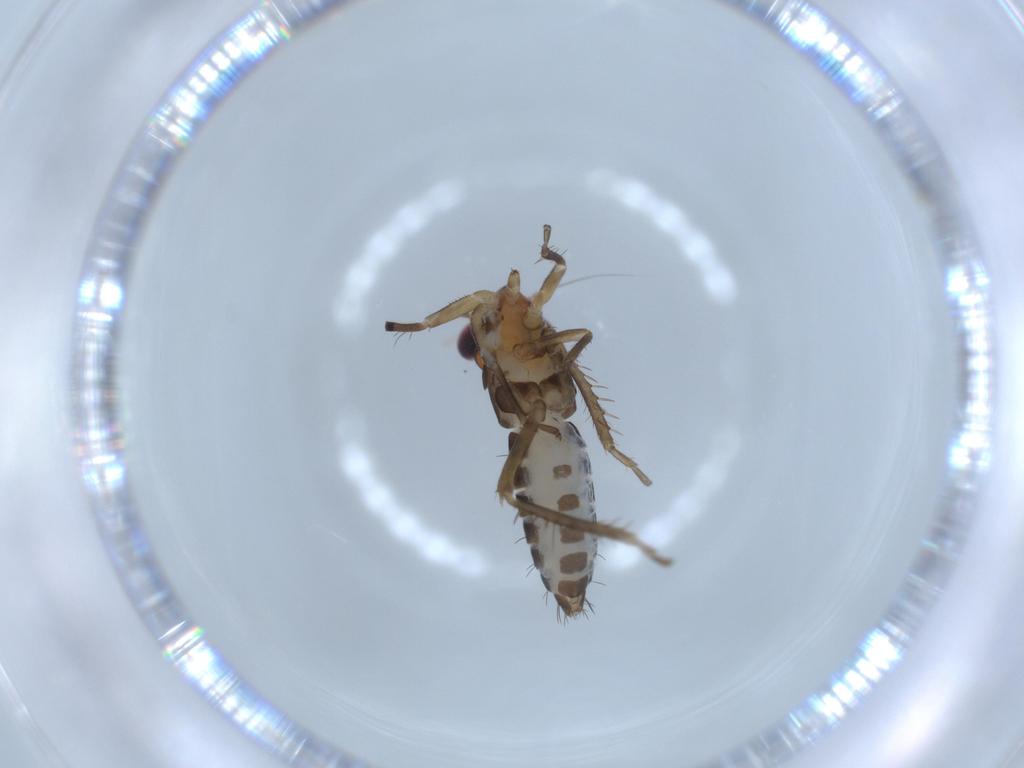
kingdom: Animalia
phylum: Arthropoda
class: Insecta
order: Hemiptera
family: Cicadellidae
